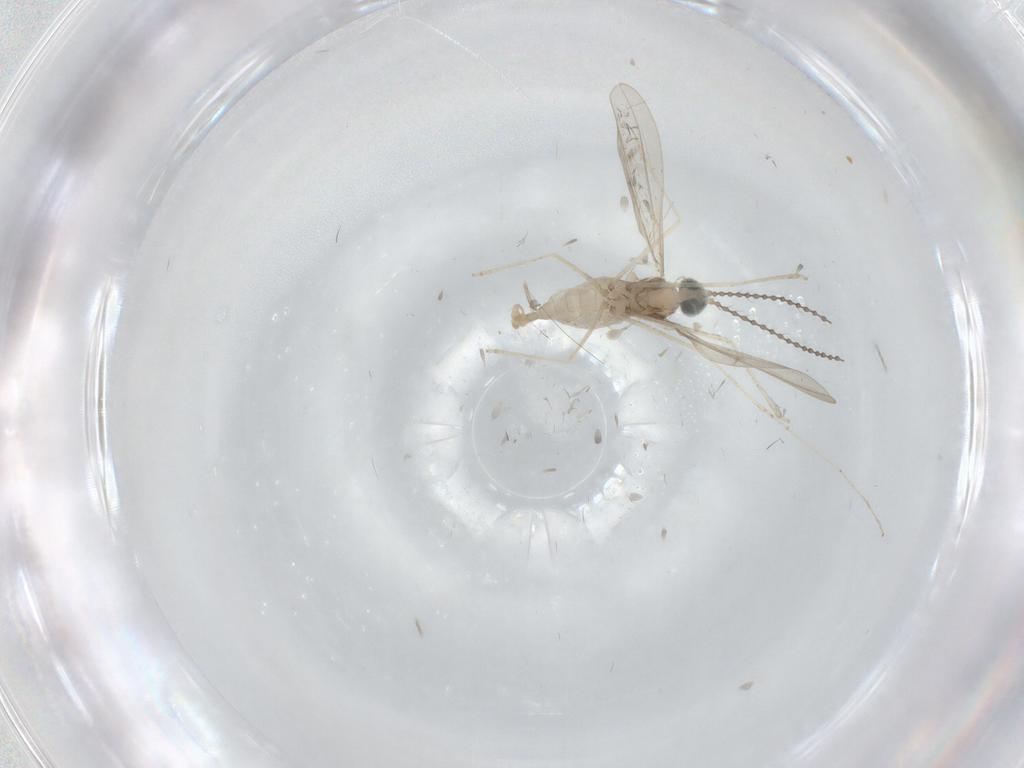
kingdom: Animalia
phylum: Arthropoda
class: Insecta
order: Diptera
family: Cecidomyiidae
